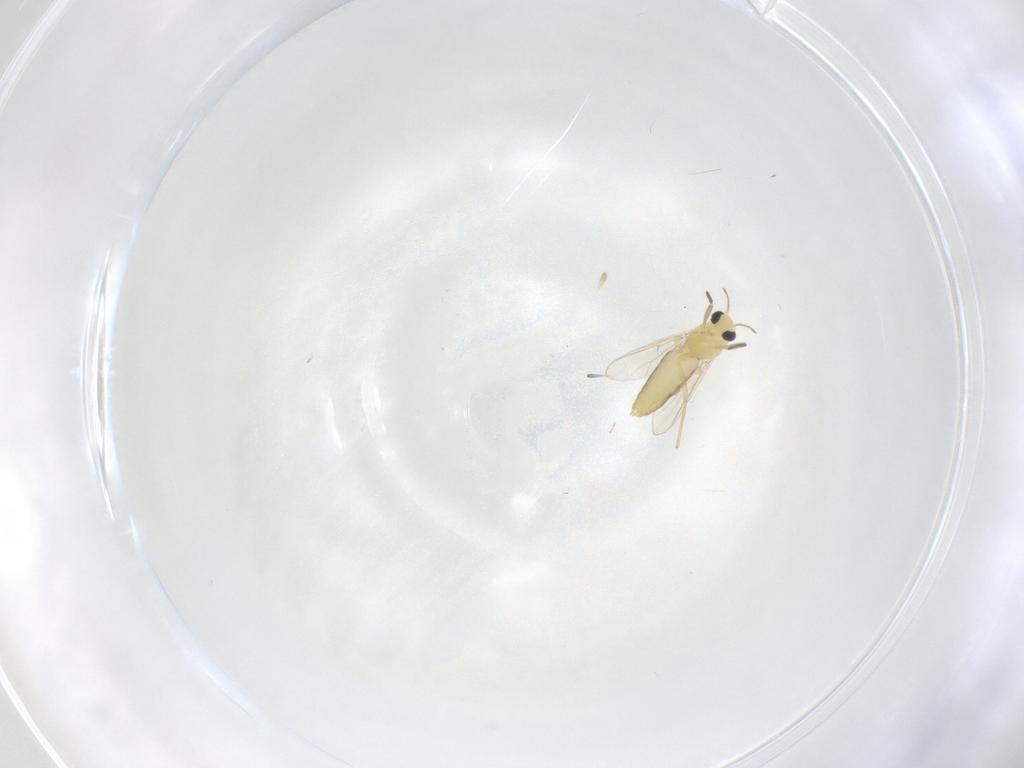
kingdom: Animalia
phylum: Arthropoda
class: Insecta
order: Diptera
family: Chironomidae
